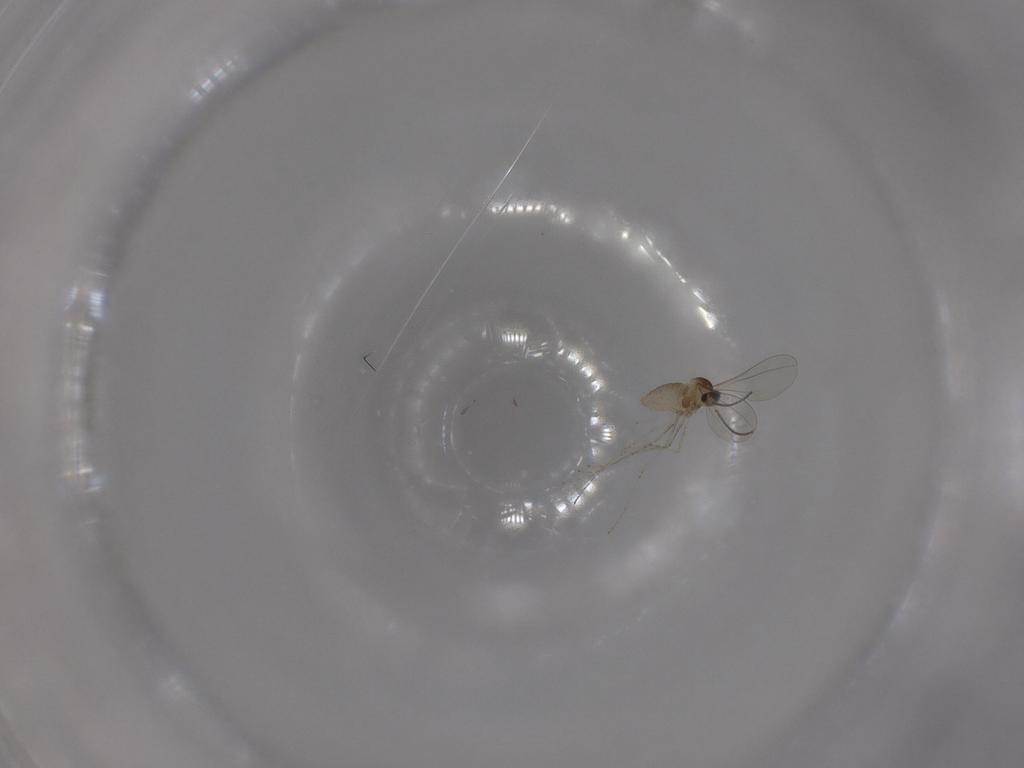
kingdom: Animalia
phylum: Arthropoda
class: Insecta
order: Diptera
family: Cecidomyiidae
